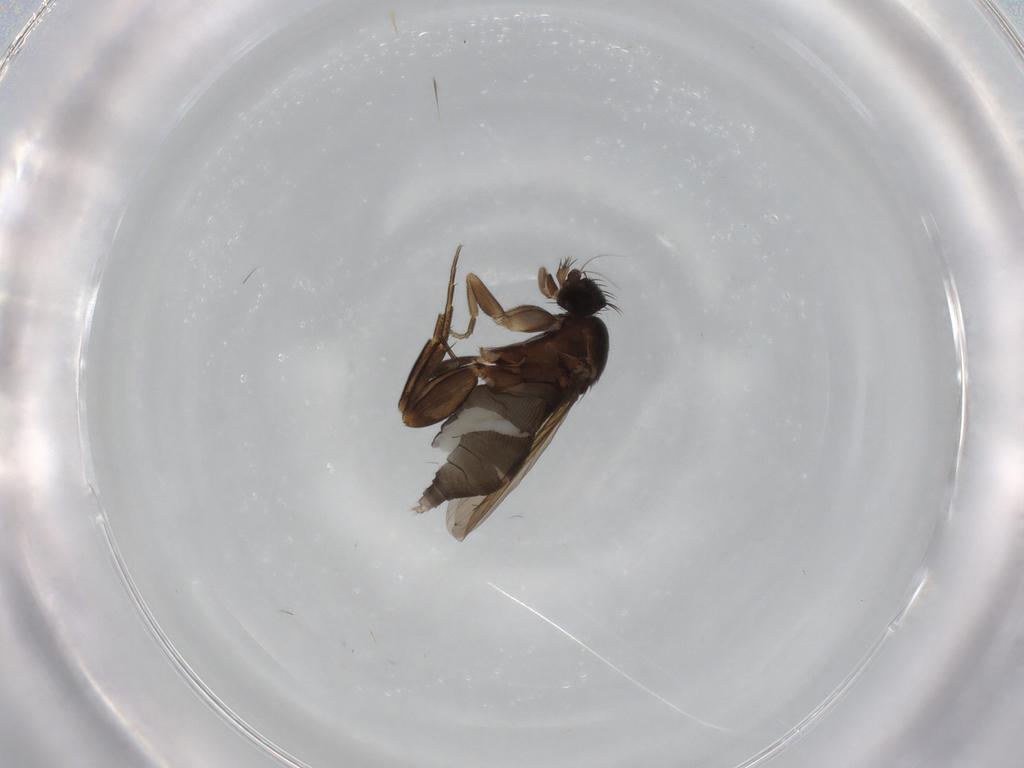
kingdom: Animalia
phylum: Arthropoda
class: Insecta
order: Diptera
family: Phoridae
